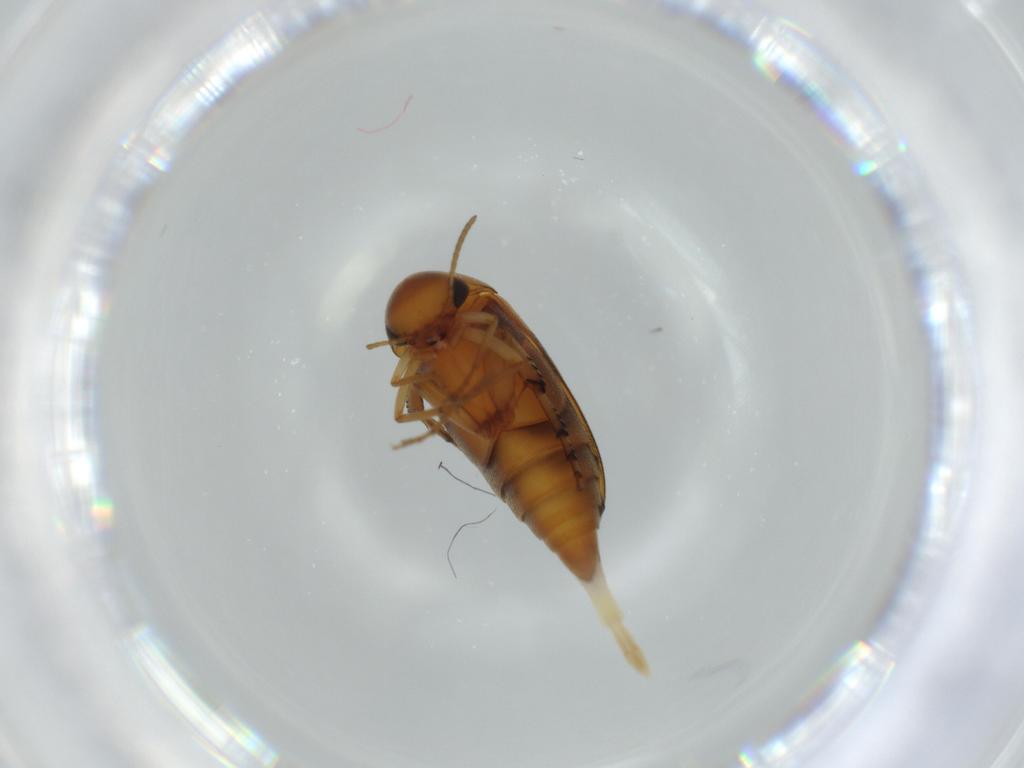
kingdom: Animalia
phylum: Arthropoda
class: Insecta
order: Coleoptera
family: Mordellidae
